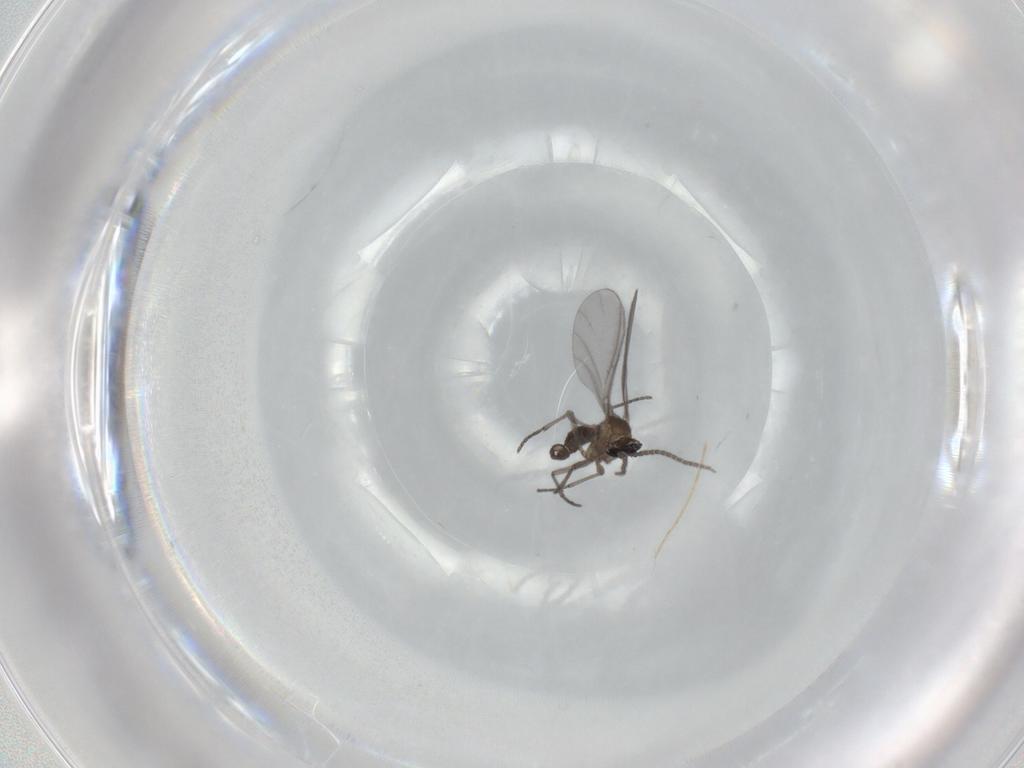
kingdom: Animalia
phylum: Arthropoda
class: Insecta
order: Diptera
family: Sciaridae
